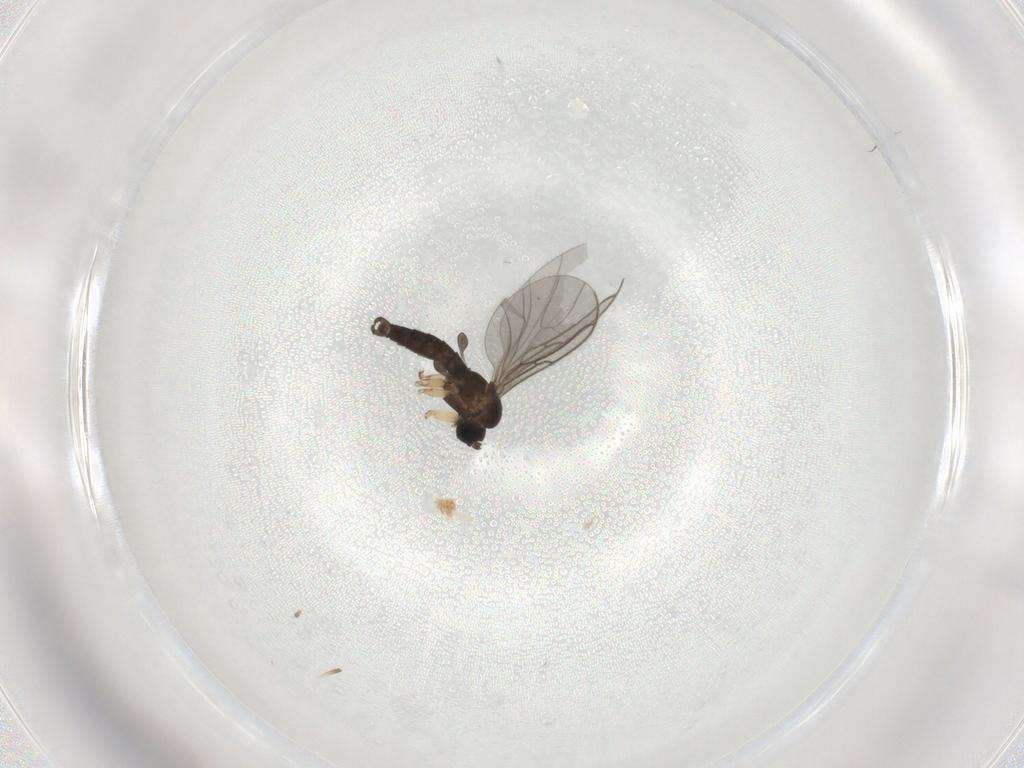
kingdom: Animalia
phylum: Arthropoda
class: Insecta
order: Diptera
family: Sciaridae
